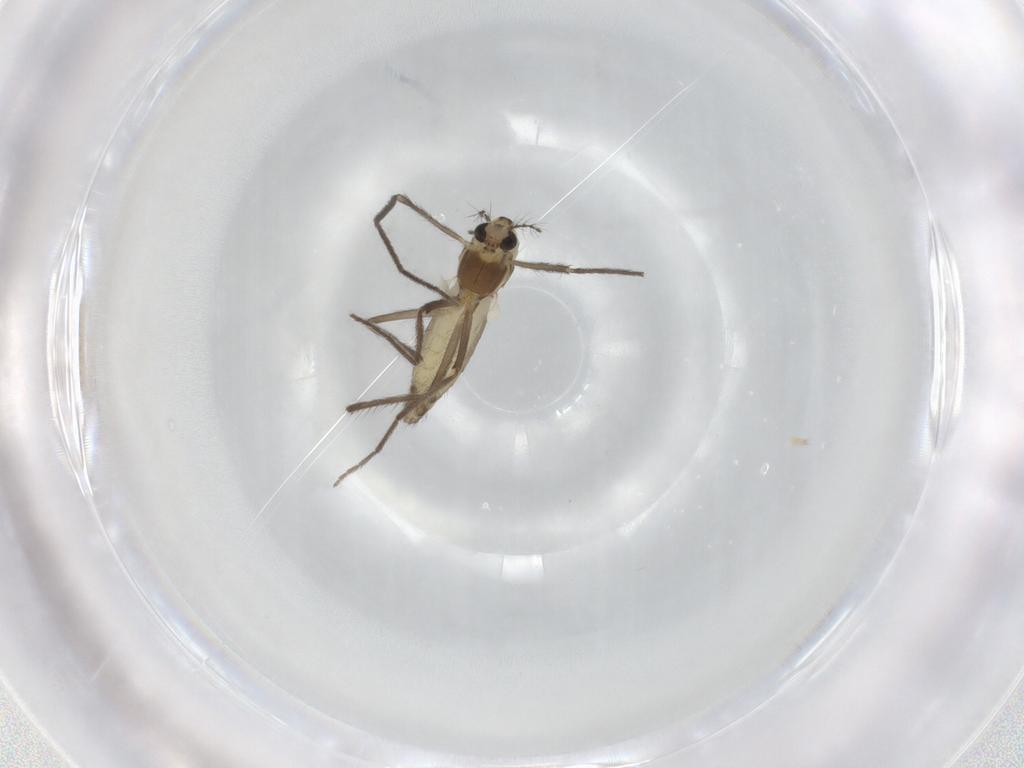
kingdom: Animalia
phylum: Arthropoda
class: Insecta
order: Diptera
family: Chironomidae
